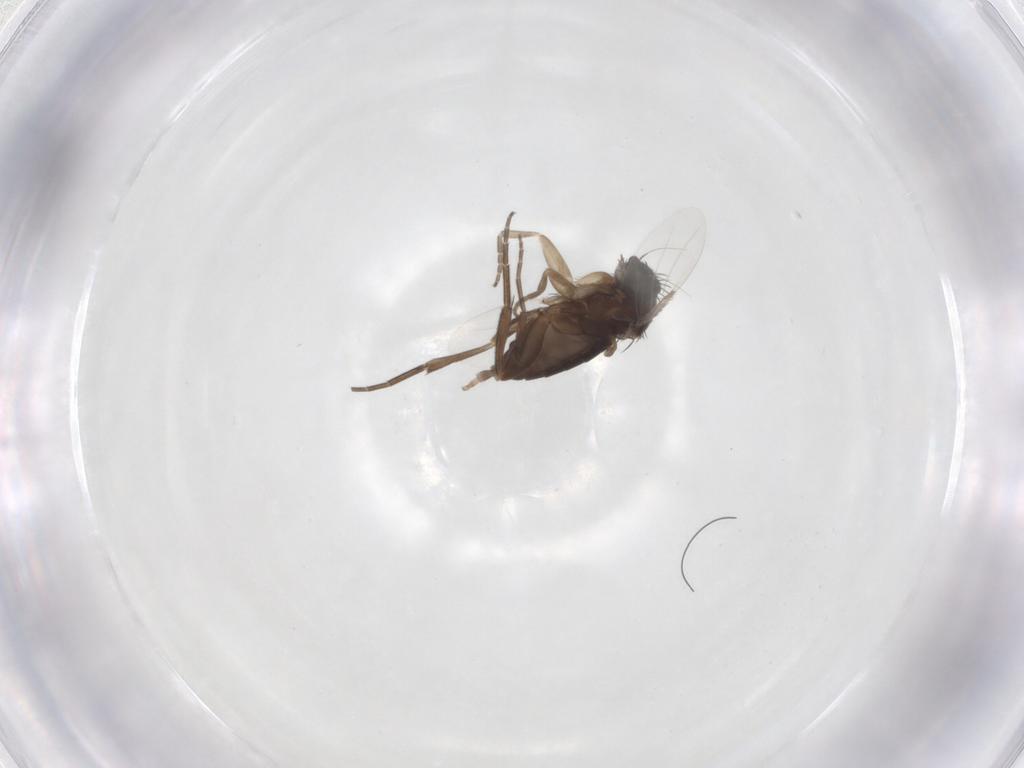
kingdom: Animalia
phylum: Arthropoda
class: Insecta
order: Diptera
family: Phoridae
